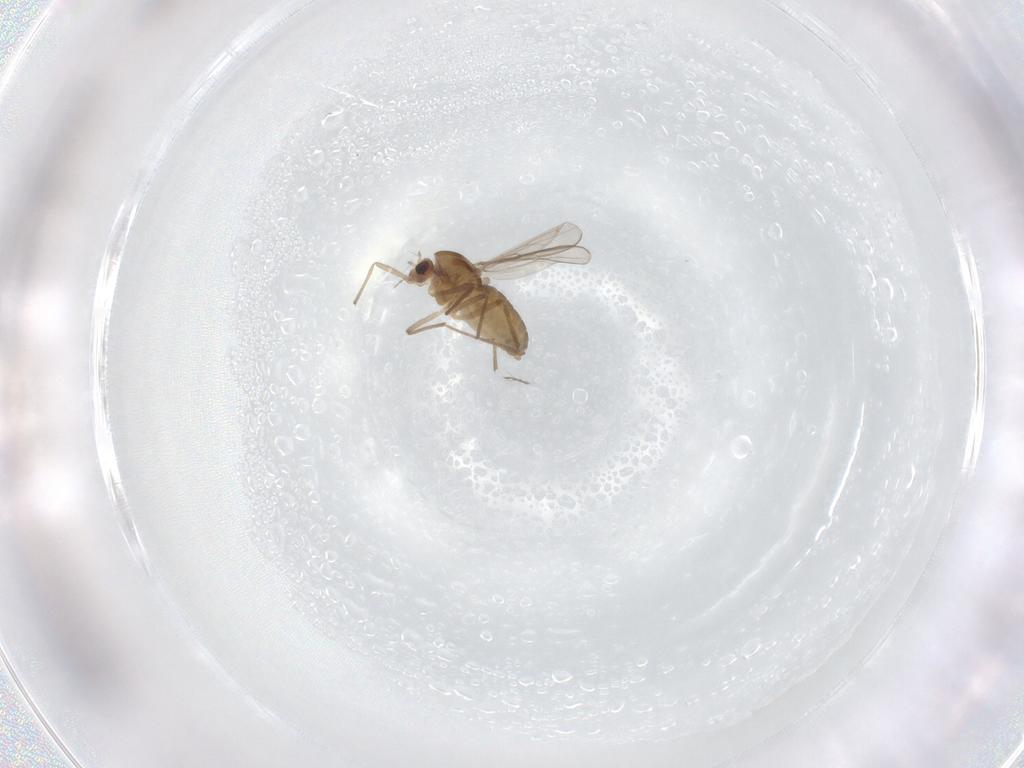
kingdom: Animalia
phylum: Arthropoda
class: Insecta
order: Diptera
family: Chironomidae
